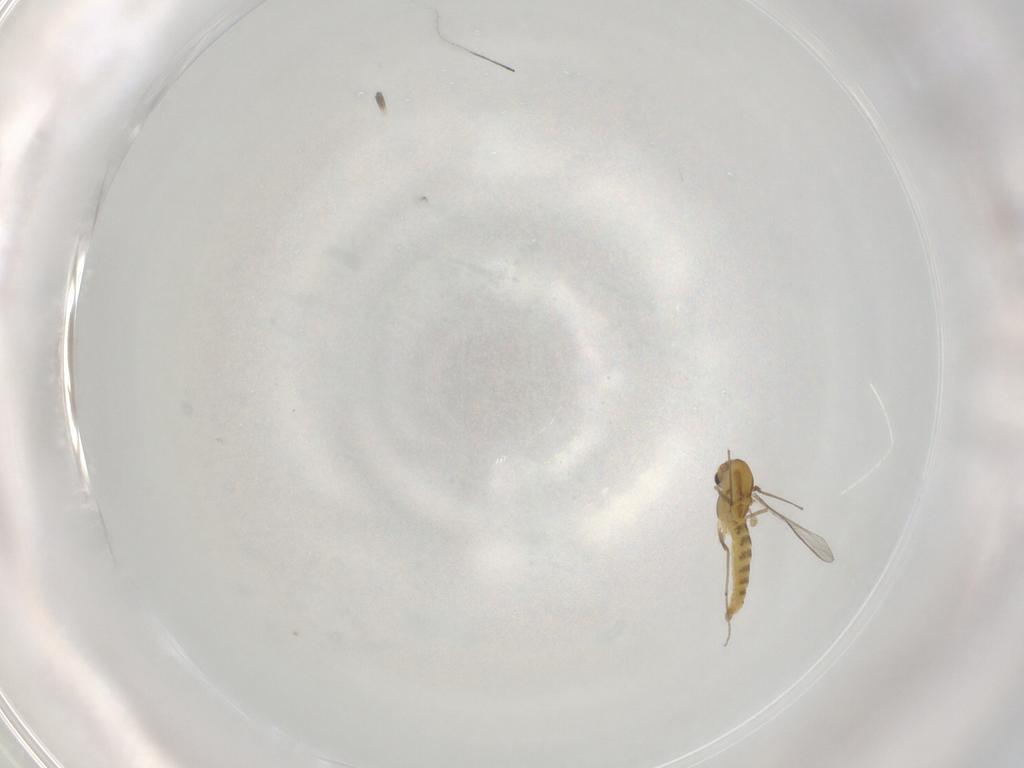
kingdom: Animalia
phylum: Arthropoda
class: Insecta
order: Diptera
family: Chironomidae
